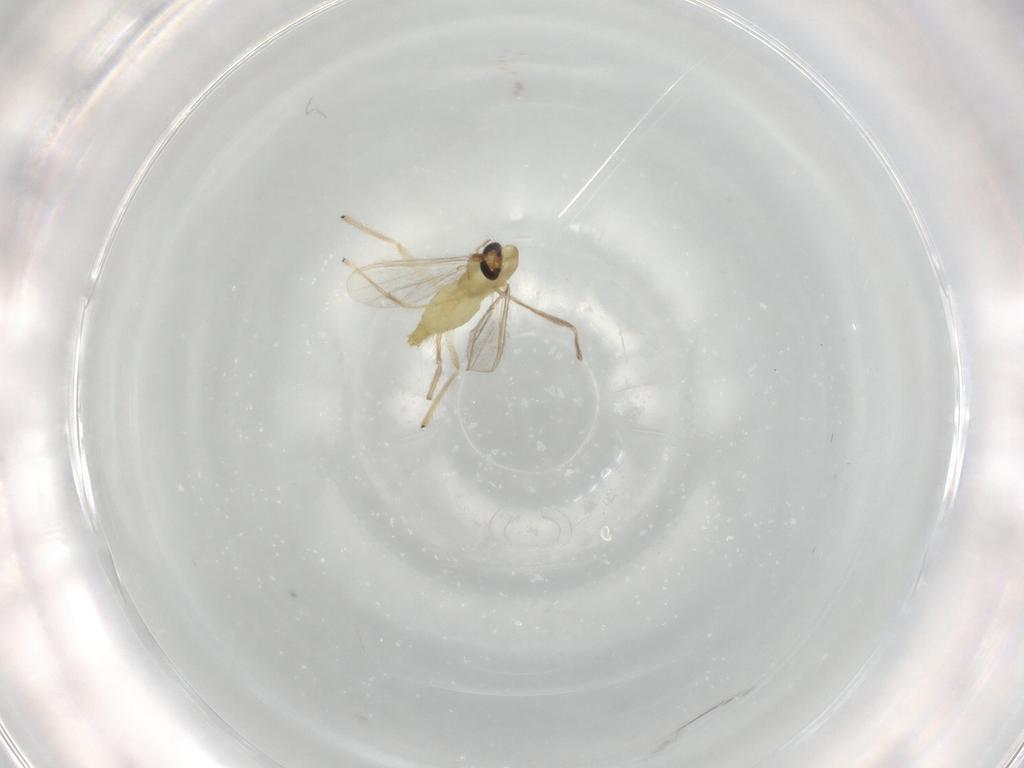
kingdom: Animalia
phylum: Arthropoda
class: Insecta
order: Diptera
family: Chironomidae
